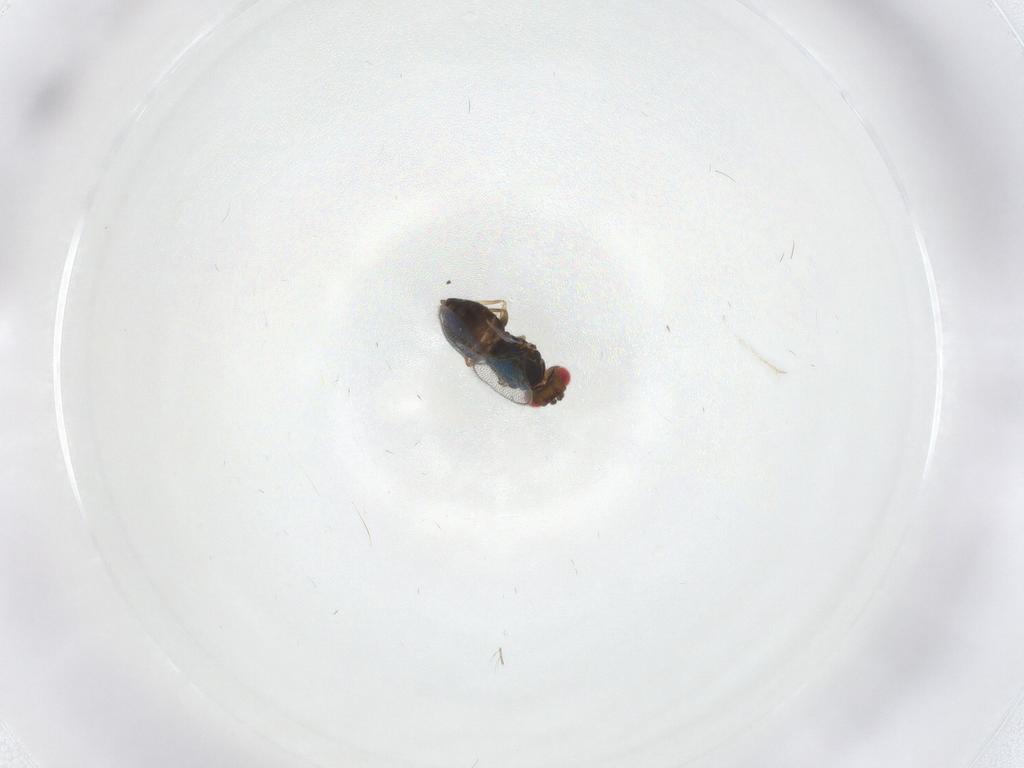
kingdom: Animalia
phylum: Arthropoda
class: Insecta
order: Hymenoptera
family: Eulophidae
